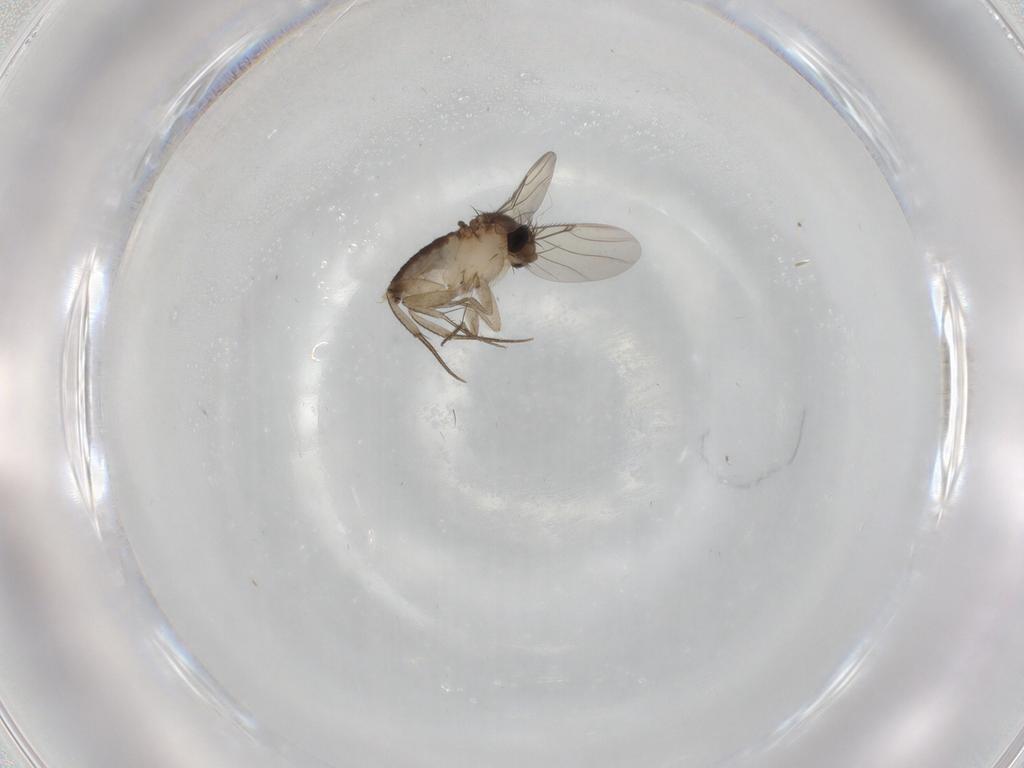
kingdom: Animalia
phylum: Arthropoda
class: Insecta
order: Diptera
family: Phoridae
